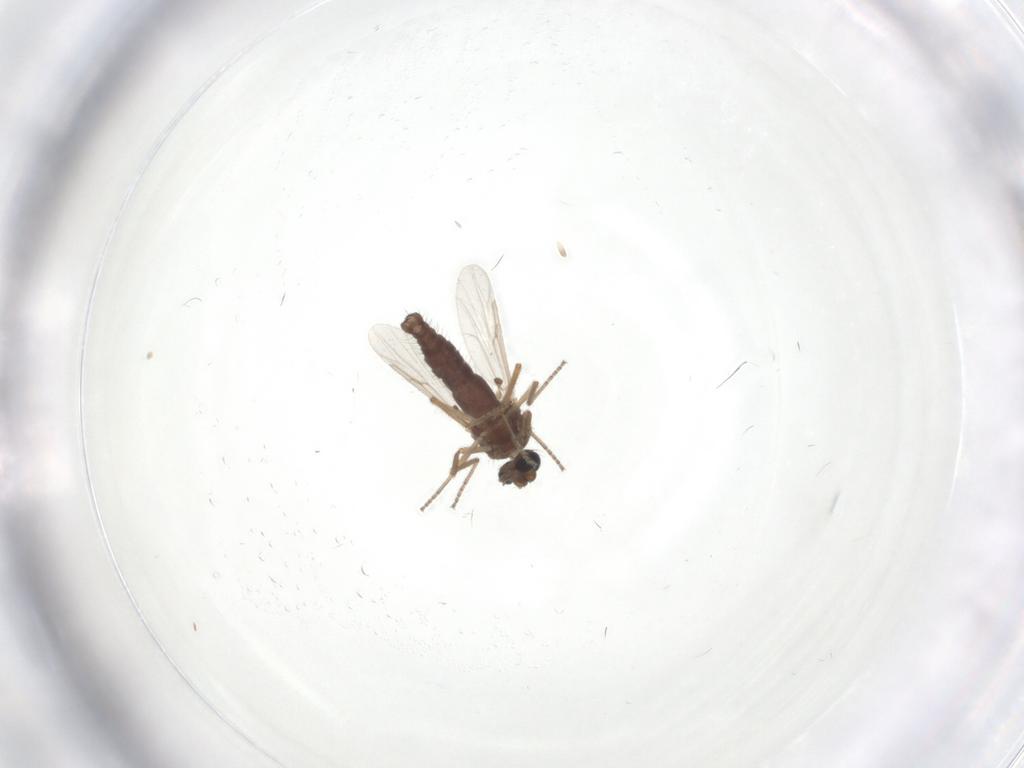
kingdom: Animalia
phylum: Arthropoda
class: Insecta
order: Diptera
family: Ceratopogonidae
